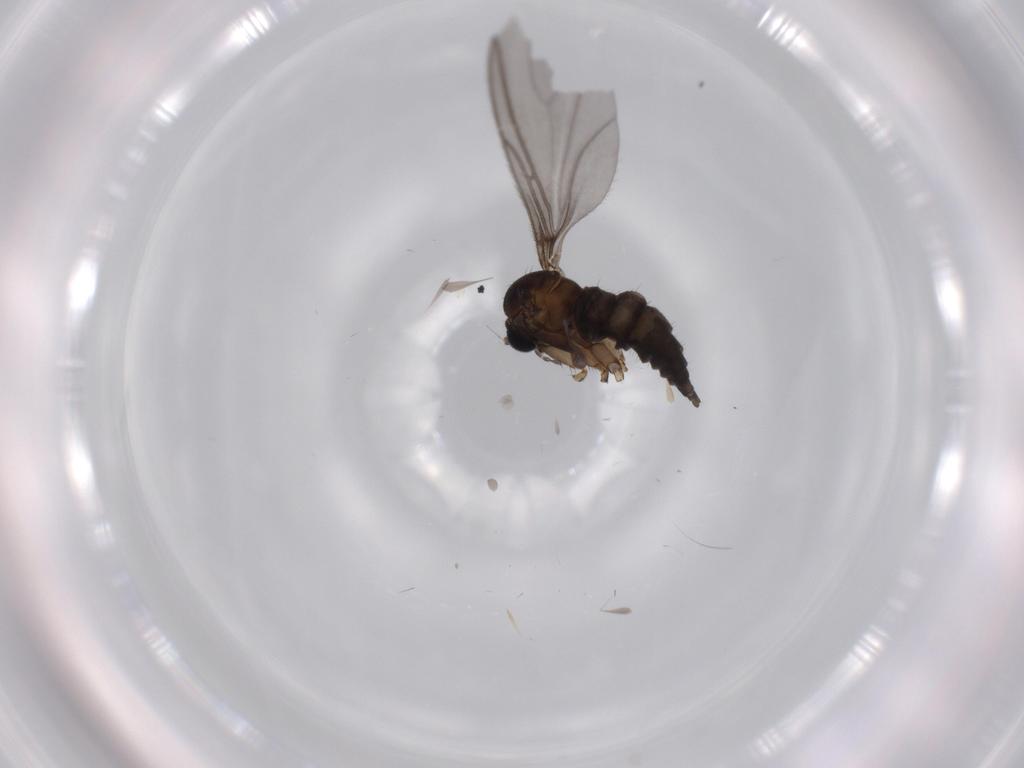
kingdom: Animalia
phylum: Arthropoda
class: Insecta
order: Diptera
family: Sciaridae
